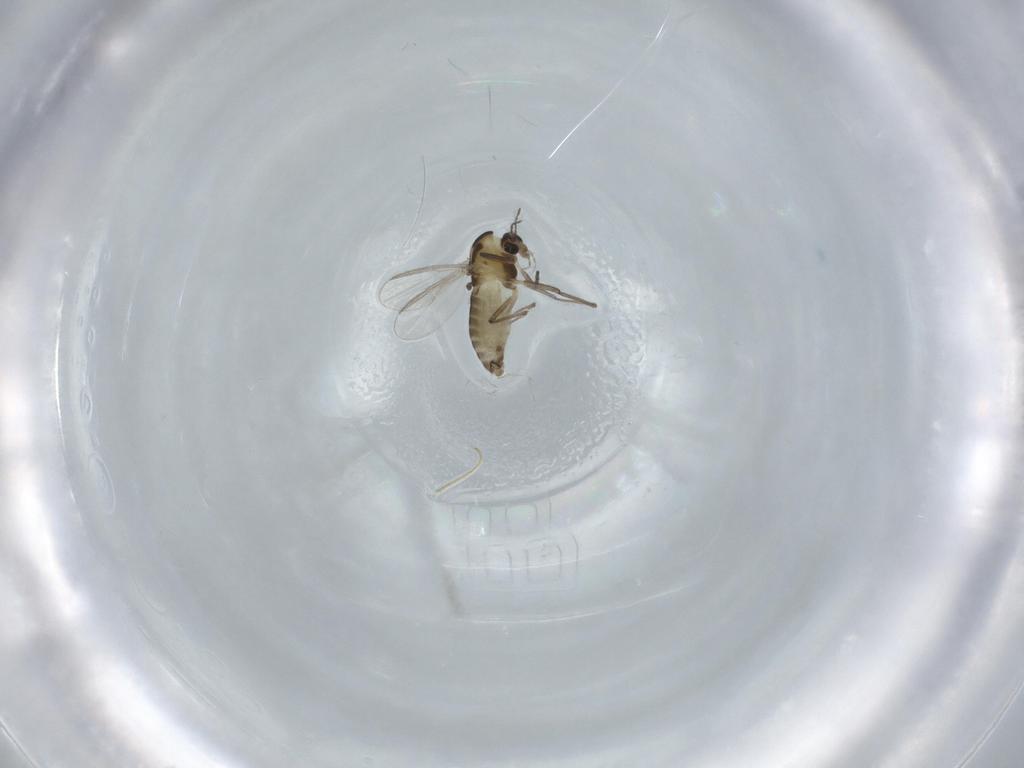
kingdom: Animalia
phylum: Arthropoda
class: Insecta
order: Diptera
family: Chironomidae
